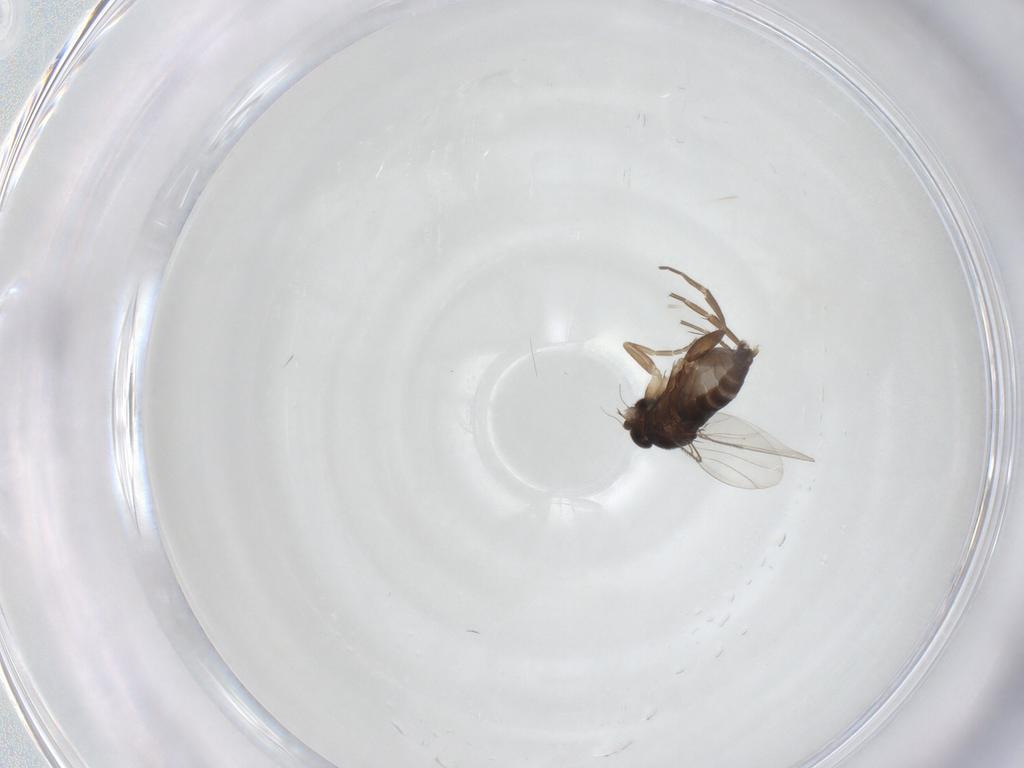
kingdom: Animalia
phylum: Arthropoda
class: Insecta
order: Diptera
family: Phoridae
